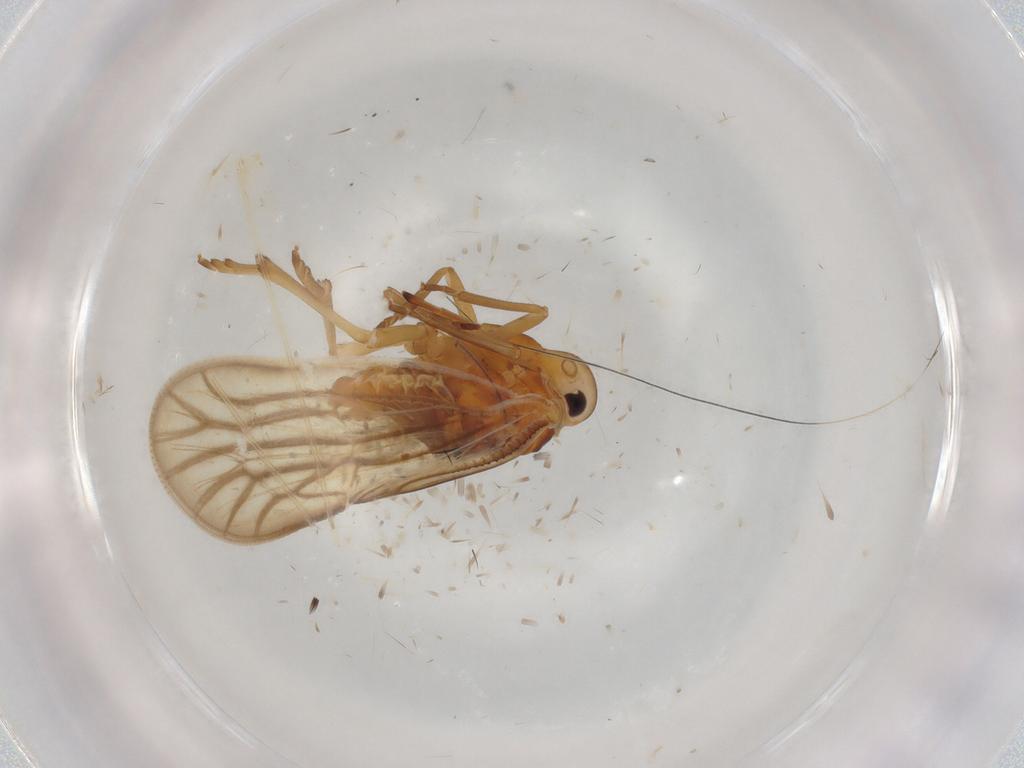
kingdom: Animalia
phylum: Arthropoda
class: Insecta
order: Hemiptera
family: Meenoplidae
